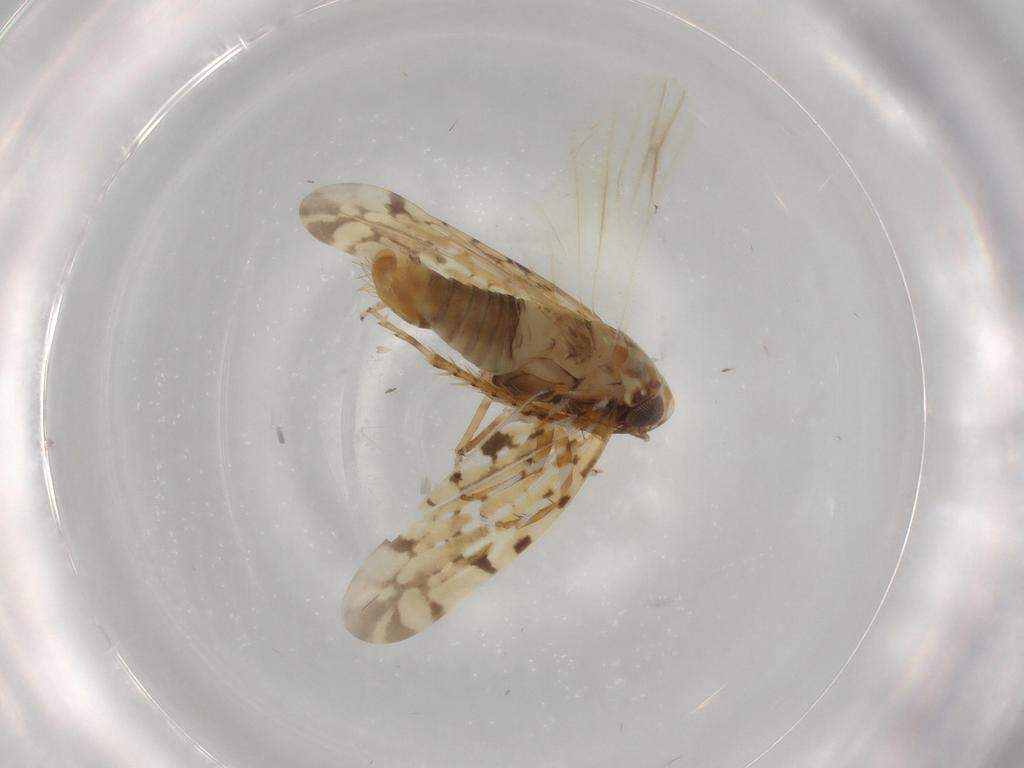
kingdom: Animalia
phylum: Arthropoda
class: Insecta
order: Hemiptera
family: Cicadellidae
